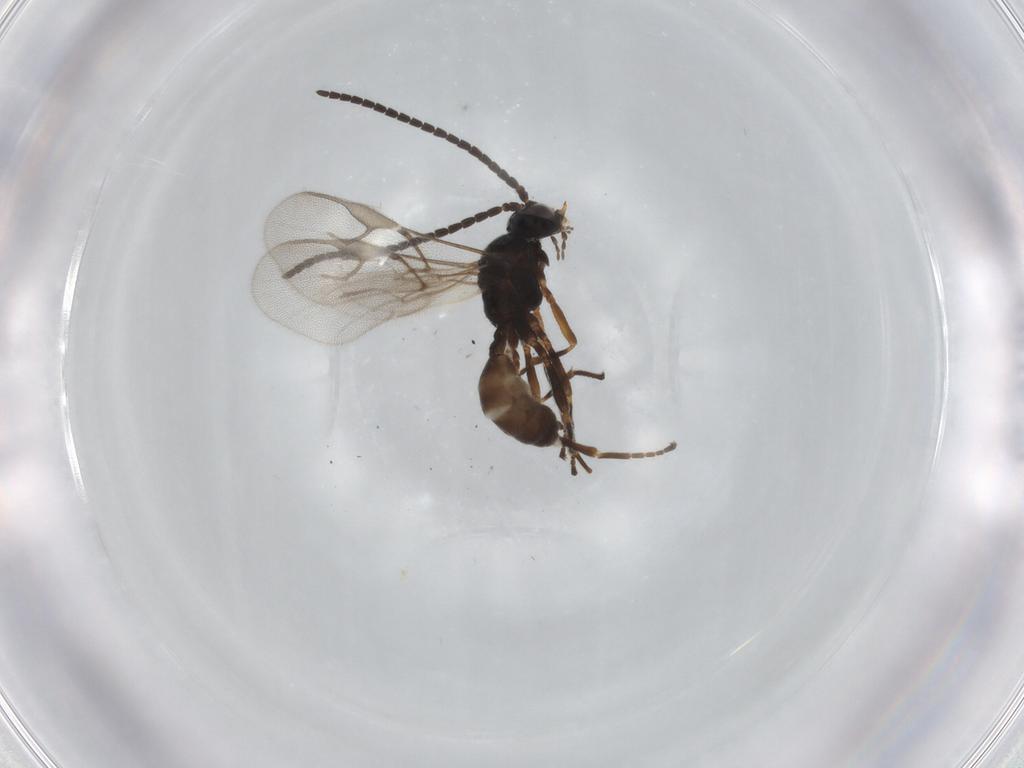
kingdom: Animalia
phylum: Arthropoda
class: Insecta
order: Hymenoptera
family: Braconidae
